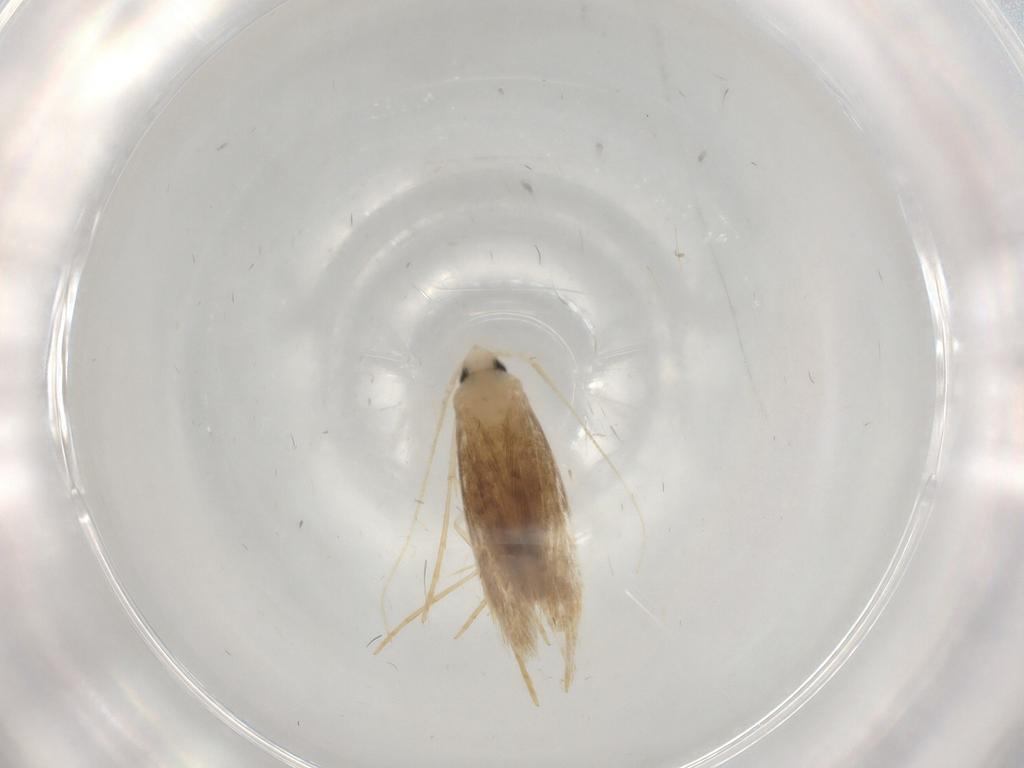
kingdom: Animalia
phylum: Arthropoda
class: Insecta
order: Lepidoptera
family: Tineidae
